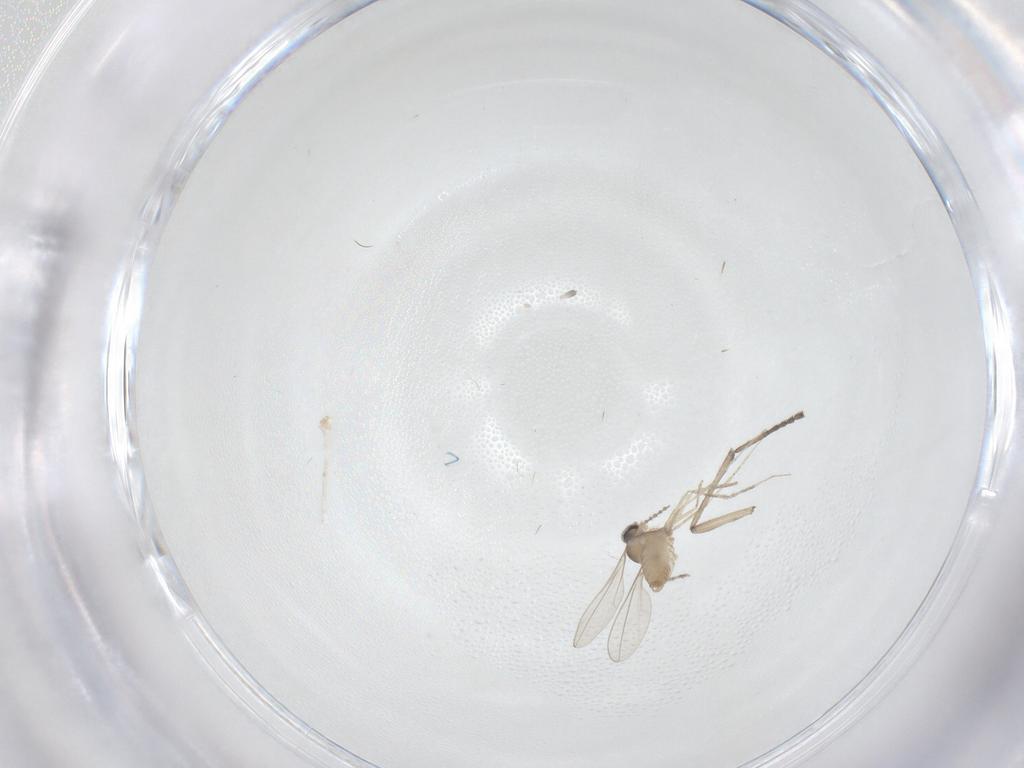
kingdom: Animalia
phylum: Arthropoda
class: Insecta
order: Diptera
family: Cecidomyiidae
